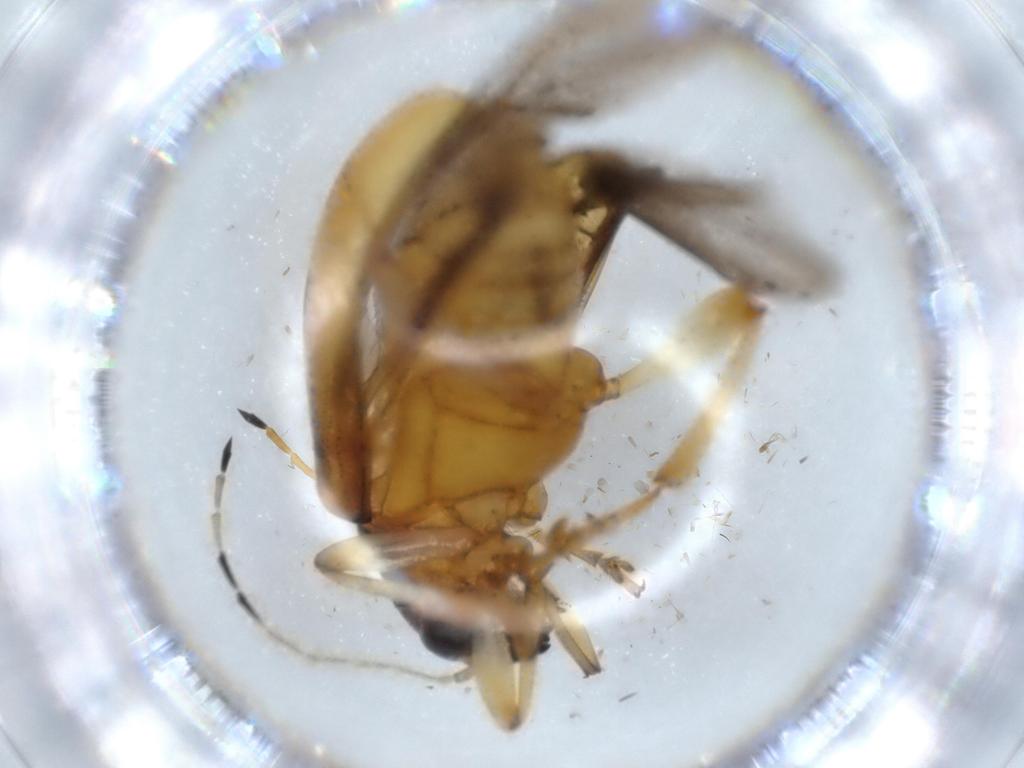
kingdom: Animalia
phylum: Arthropoda
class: Insecta
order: Coleoptera
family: Chrysomelidae
